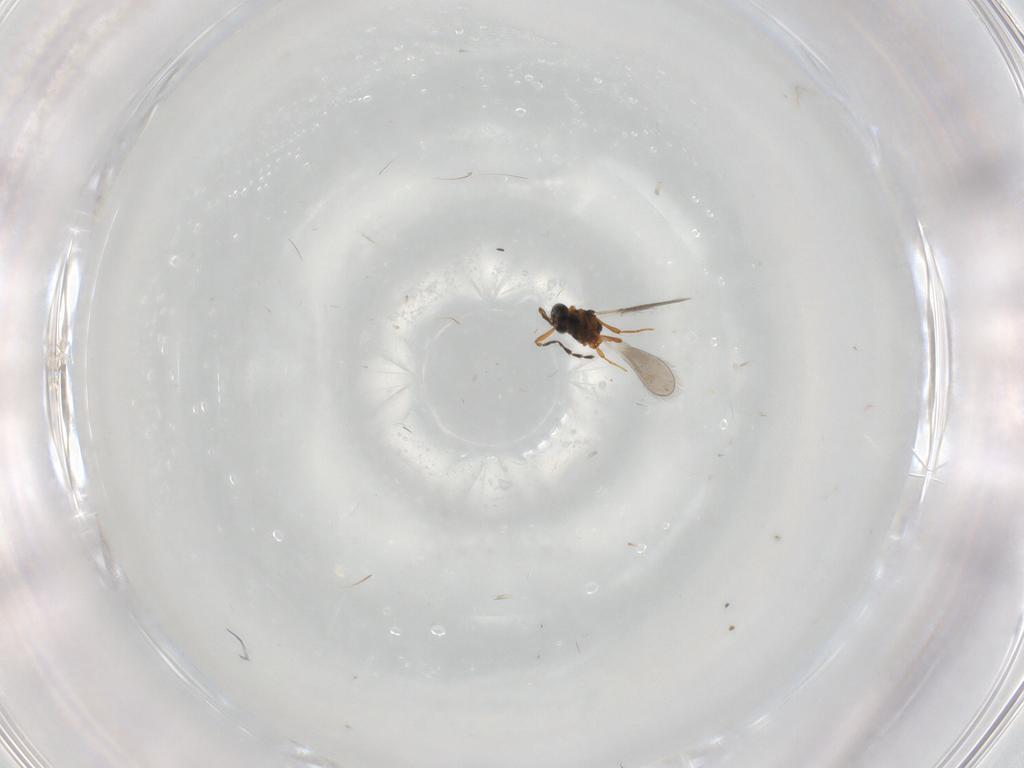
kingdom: Animalia
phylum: Arthropoda
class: Insecta
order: Hymenoptera
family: Platygastridae
